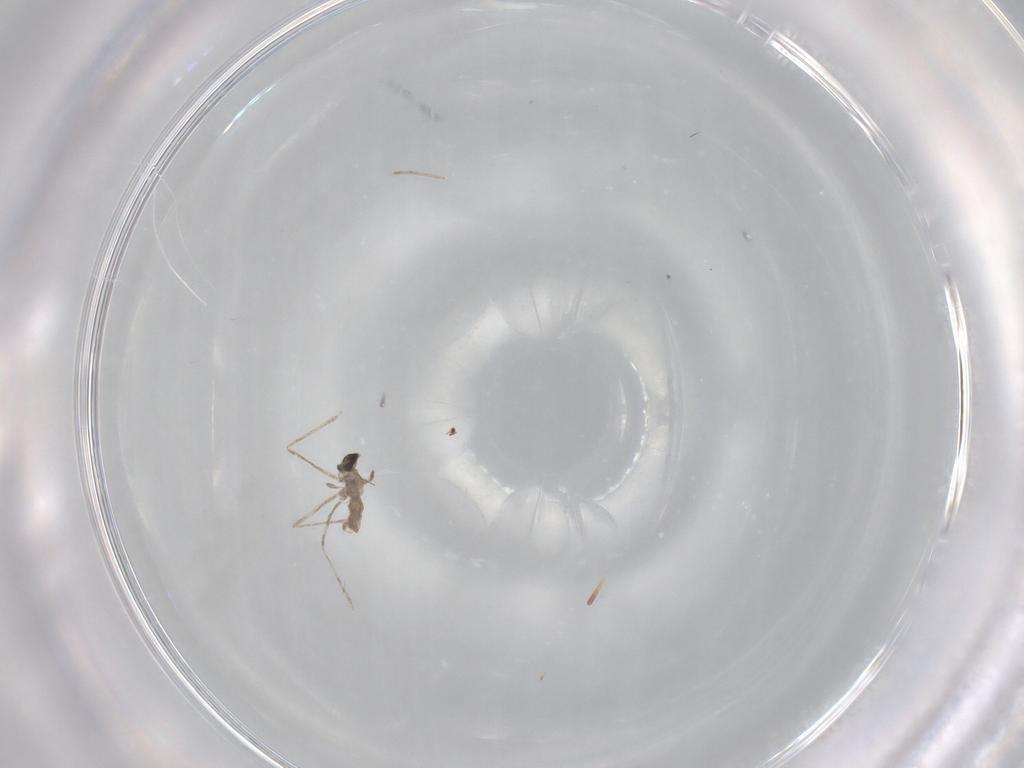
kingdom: Animalia
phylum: Arthropoda
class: Insecta
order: Diptera
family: Cecidomyiidae
